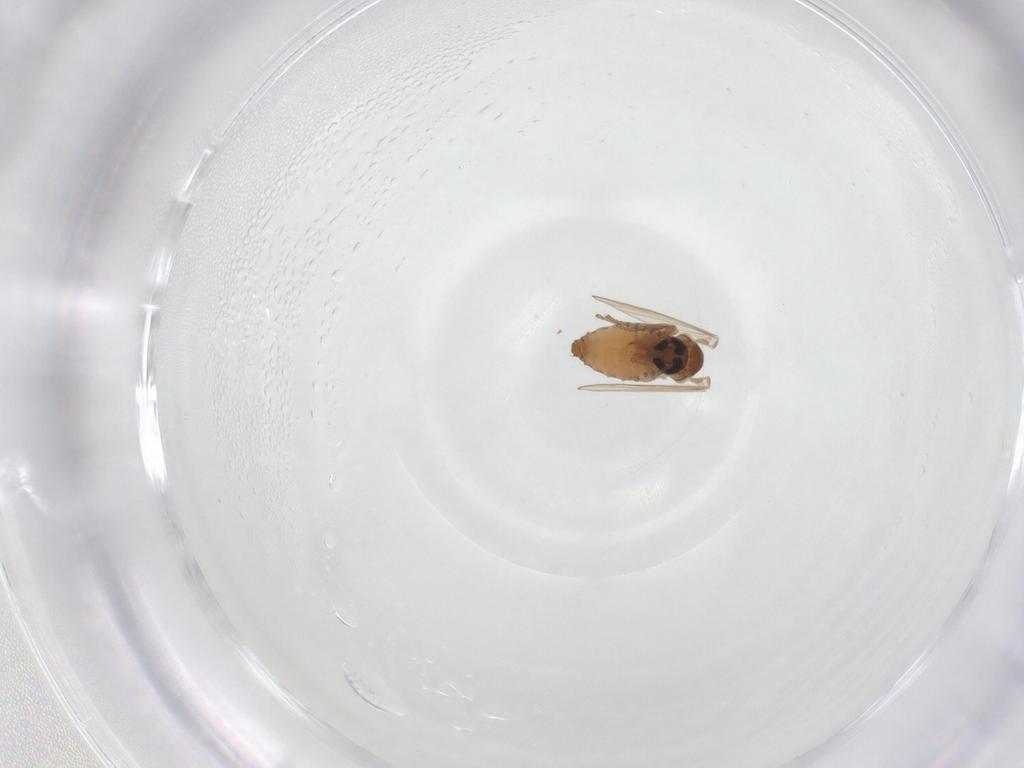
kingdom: Animalia
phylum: Arthropoda
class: Insecta
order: Diptera
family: Psychodidae
